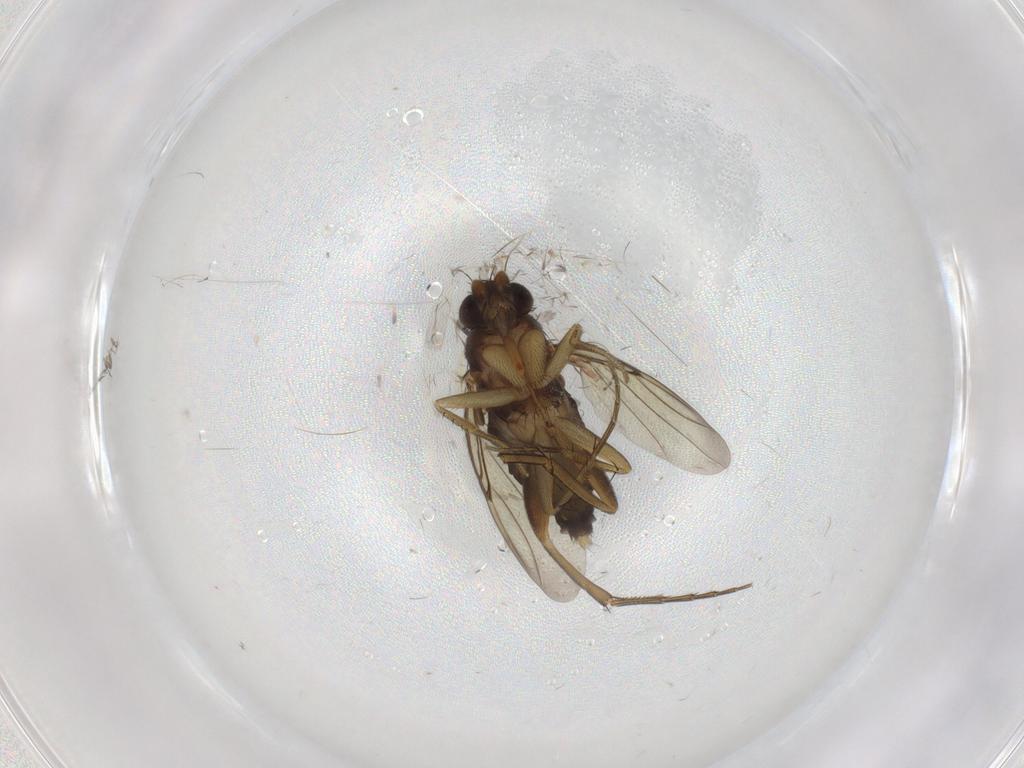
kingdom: Animalia
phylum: Arthropoda
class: Insecta
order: Diptera
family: Phoridae
